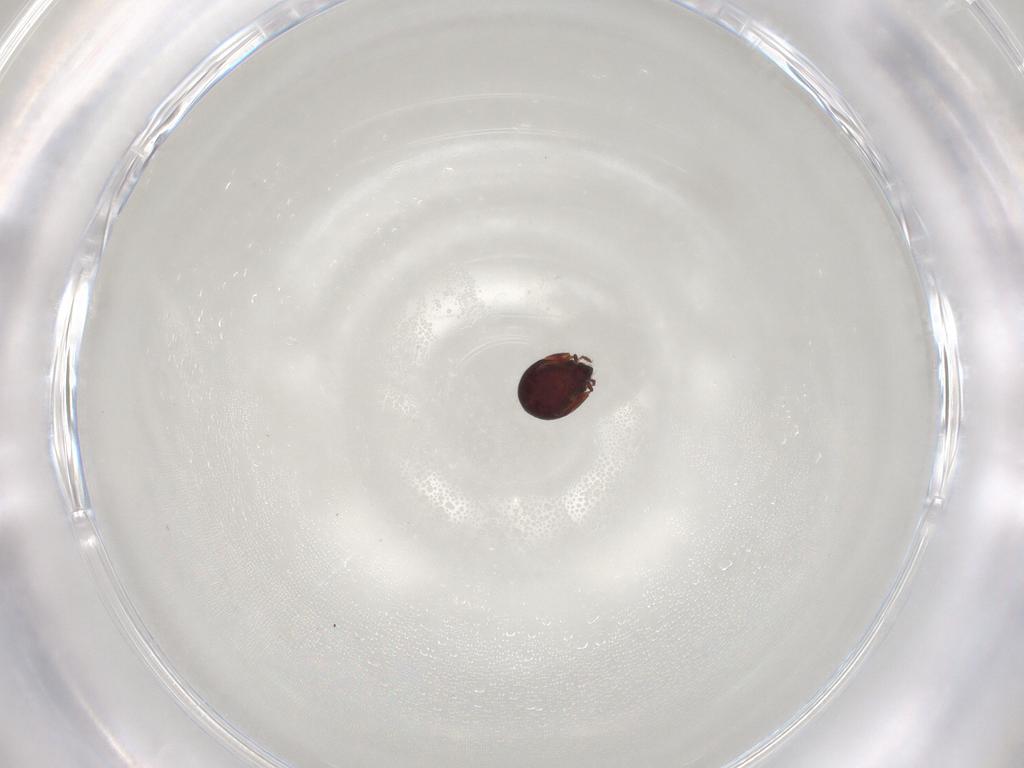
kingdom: Animalia
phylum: Arthropoda
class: Arachnida
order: Sarcoptiformes
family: Humerobatidae
